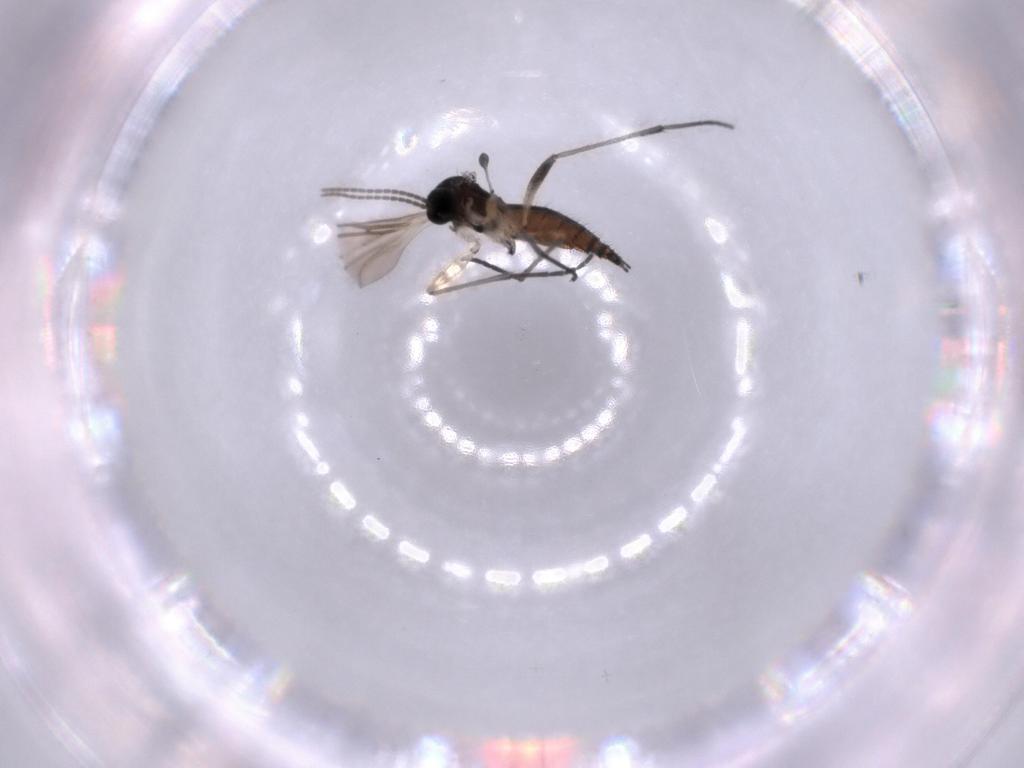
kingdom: Animalia
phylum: Arthropoda
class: Insecta
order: Diptera
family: Sciaridae
